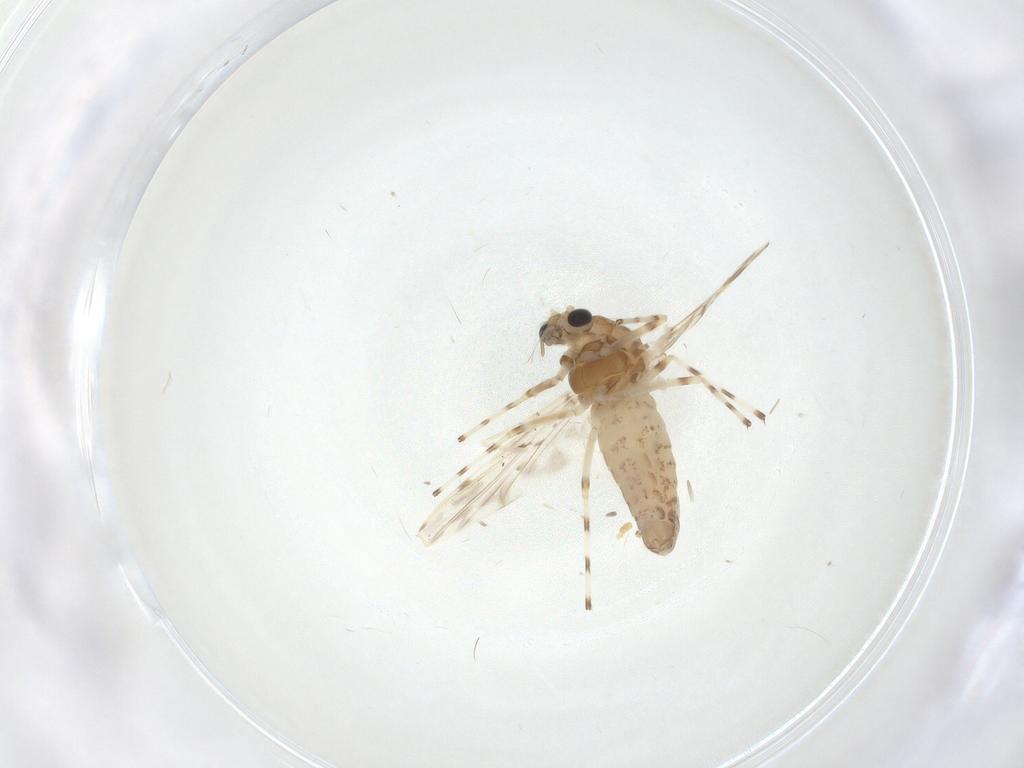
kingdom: Animalia
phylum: Arthropoda
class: Insecta
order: Diptera
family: Chironomidae
